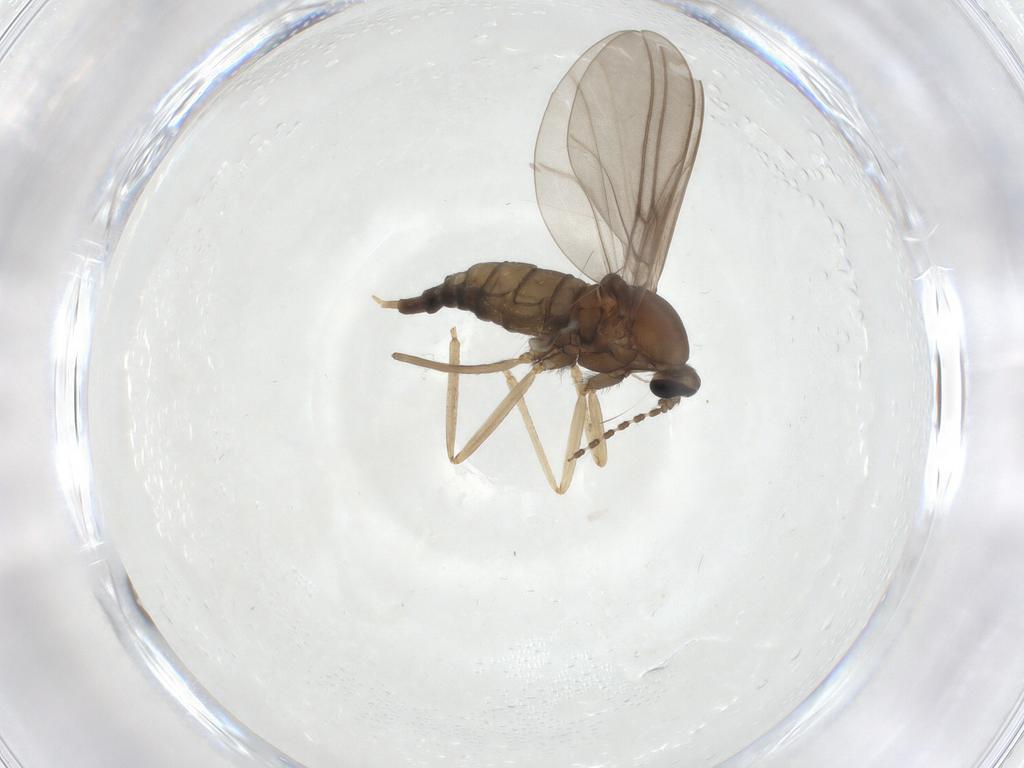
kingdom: Animalia
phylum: Arthropoda
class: Insecta
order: Diptera
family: Cecidomyiidae
